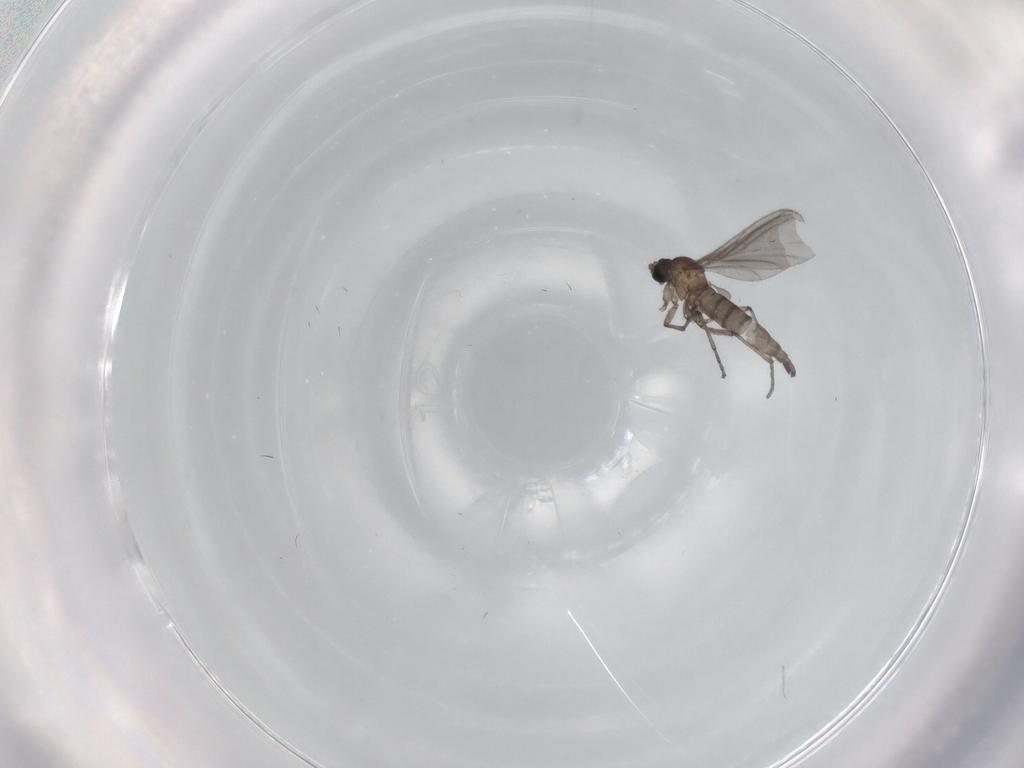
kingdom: Animalia
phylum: Arthropoda
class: Insecta
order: Diptera
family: Sciaridae
